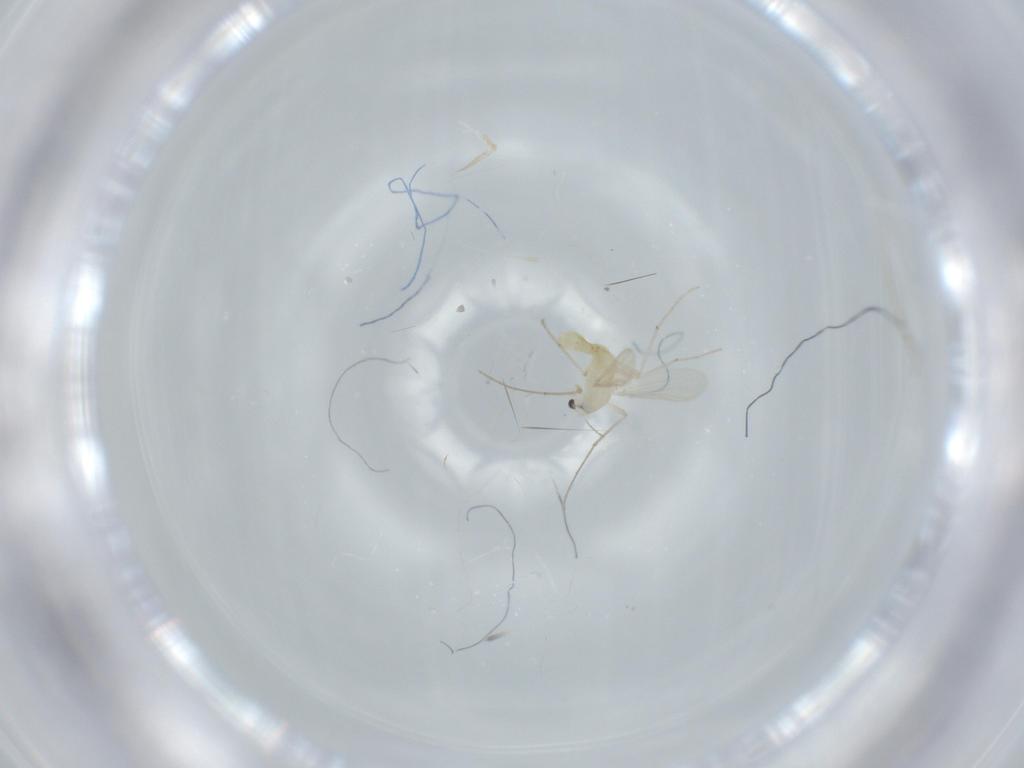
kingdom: Animalia
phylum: Arthropoda
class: Insecta
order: Diptera
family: Chironomidae
